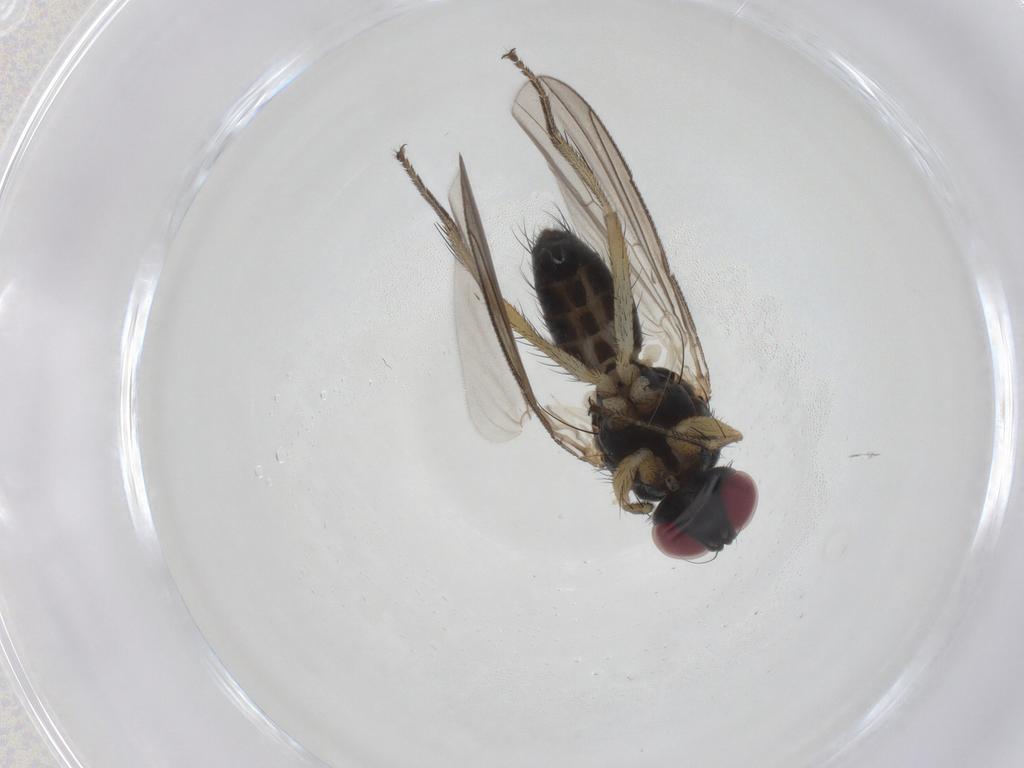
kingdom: Animalia
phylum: Arthropoda
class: Insecta
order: Diptera
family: Muscidae
